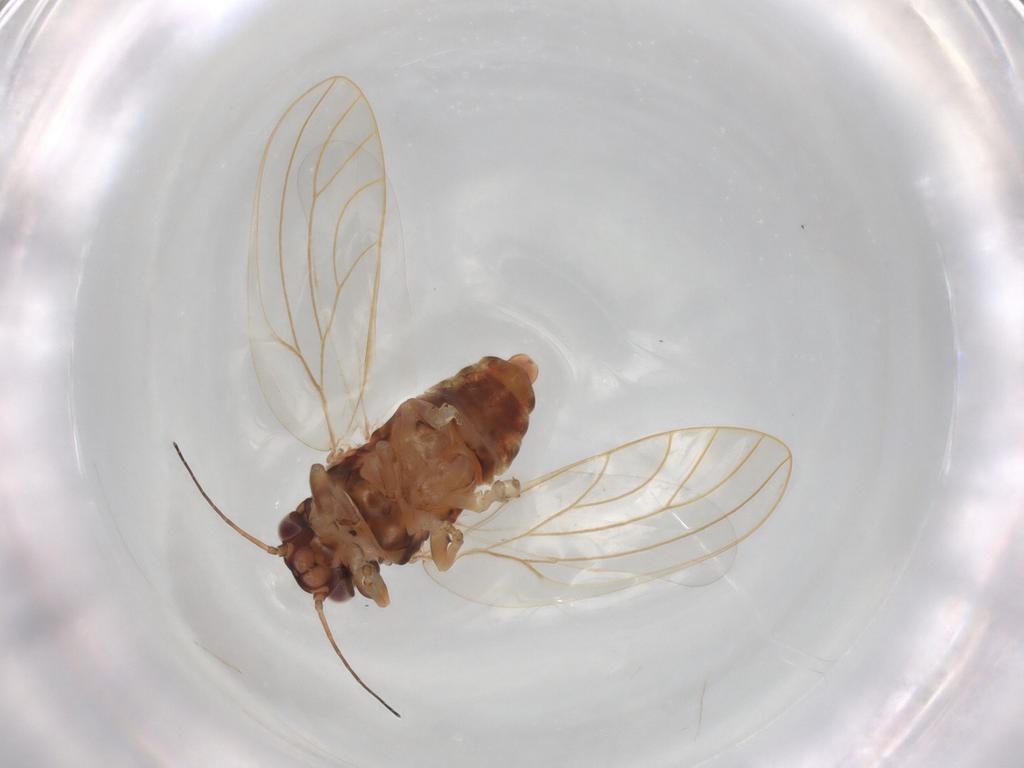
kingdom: Animalia
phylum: Arthropoda
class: Insecta
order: Hemiptera
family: Aphalaridae
